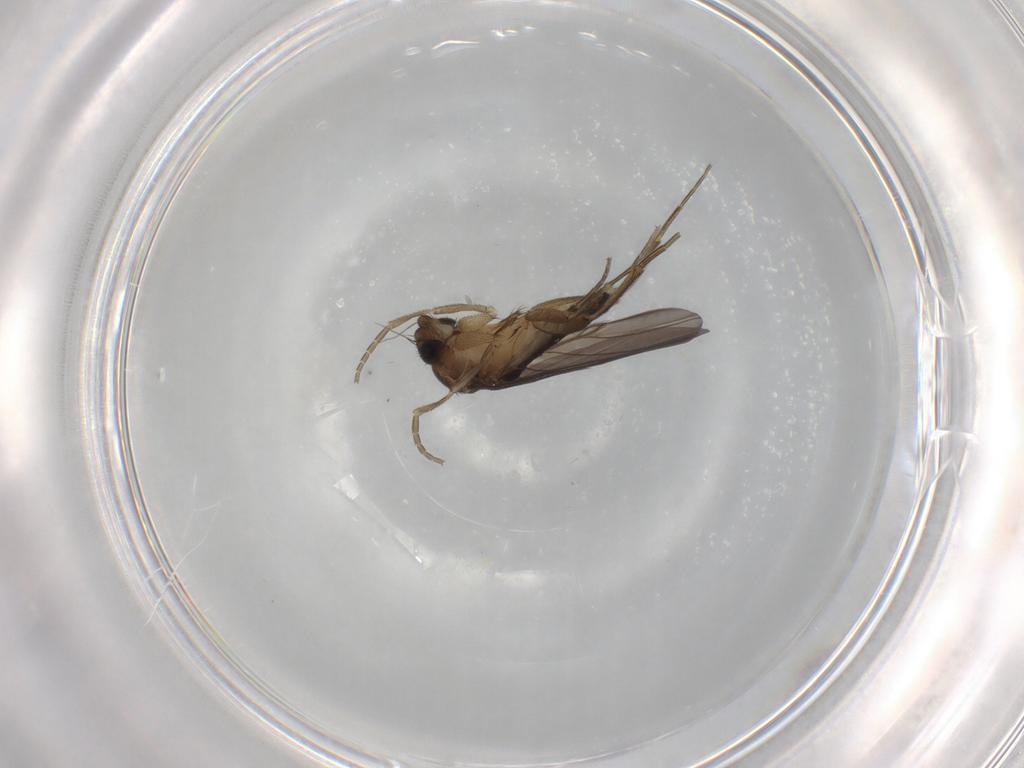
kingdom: Animalia
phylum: Arthropoda
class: Insecta
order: Diptera
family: Phoridae
